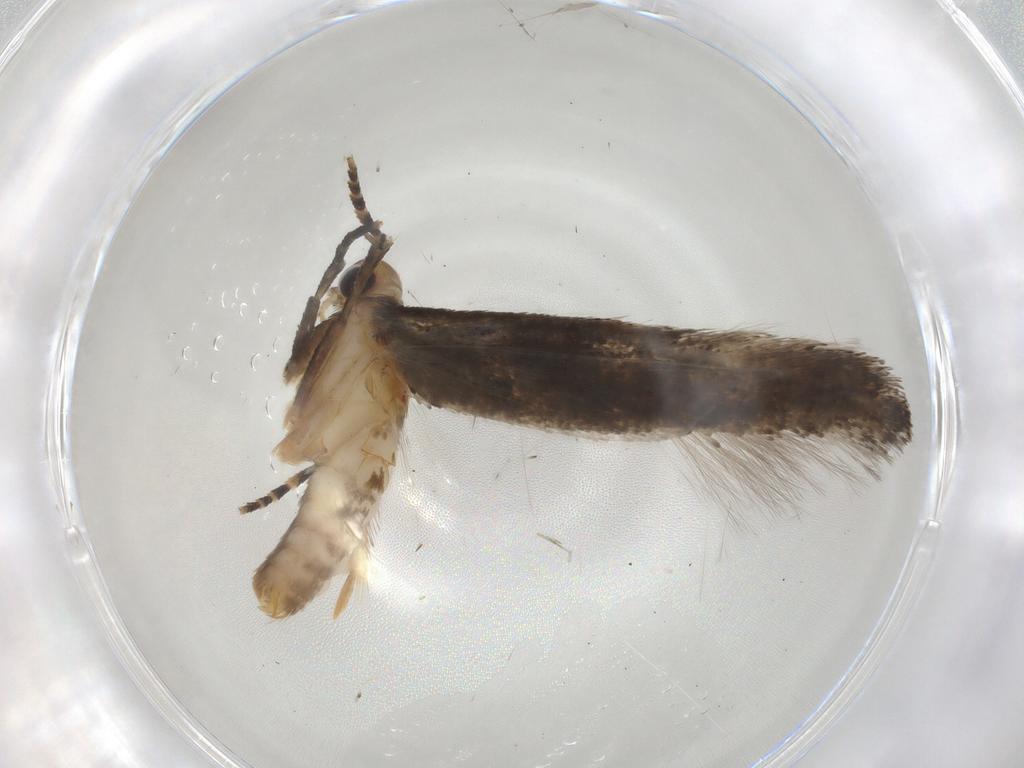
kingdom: Animalia
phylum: Arthropoda
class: Insecta
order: Lepidoptera
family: Gelechiidae
